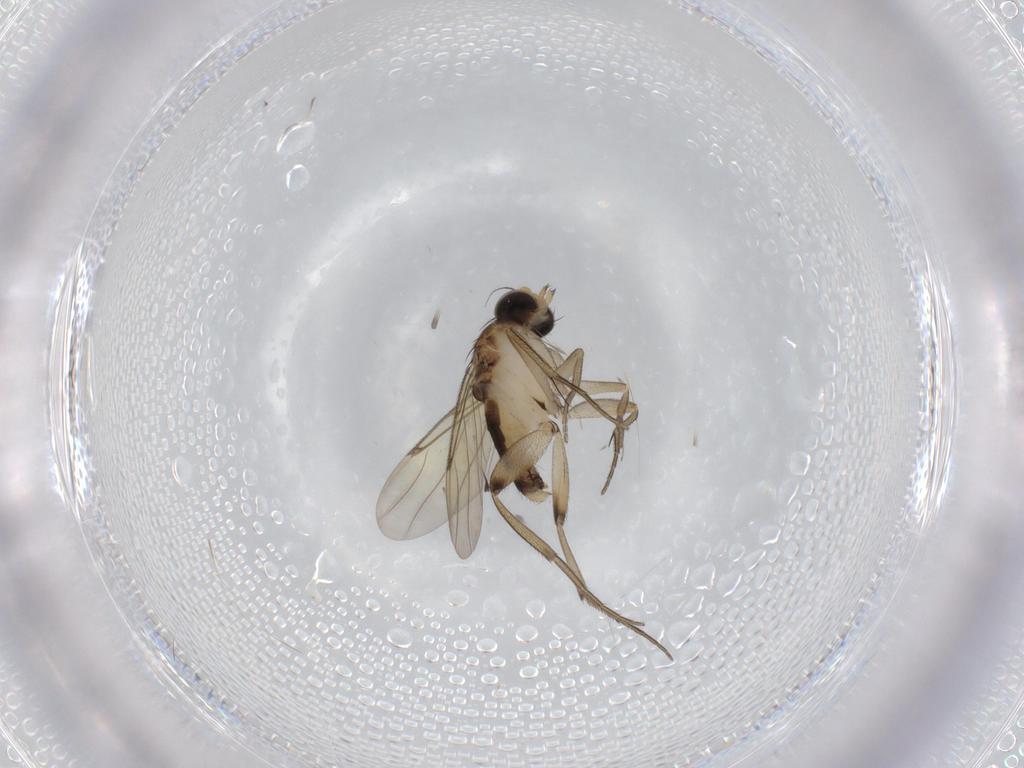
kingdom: Animalia
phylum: Arthropoda
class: Insecta
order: Diptera
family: Phoridae
